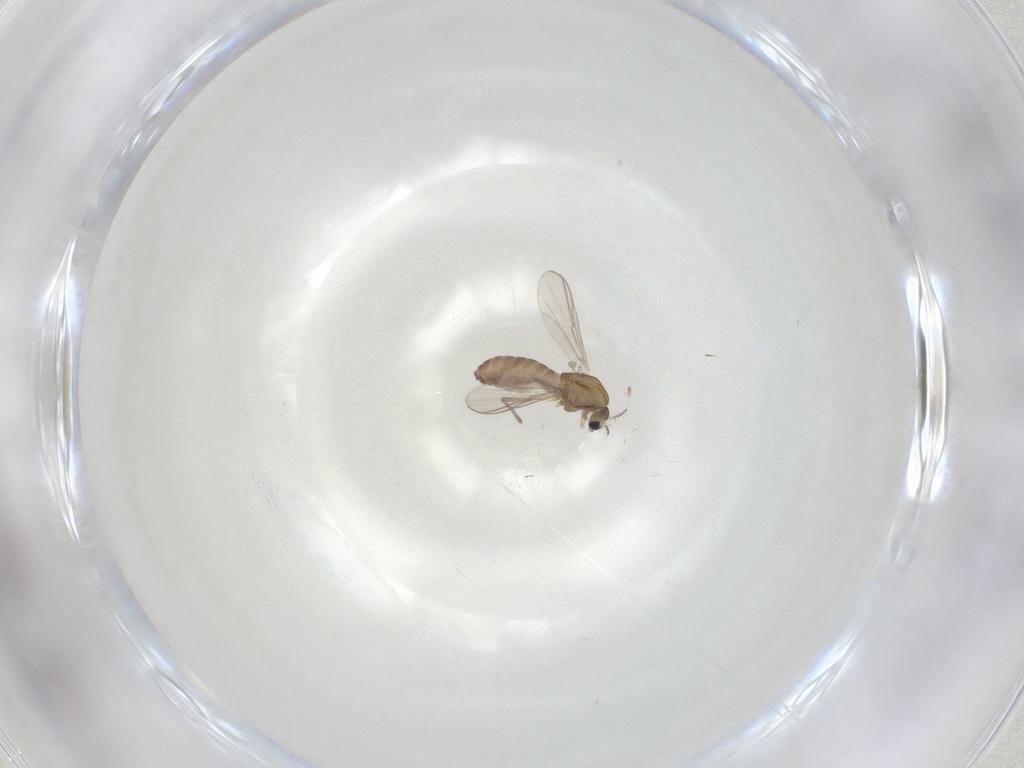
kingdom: Animalia
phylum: Arthropoda
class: Insecta
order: Diptera
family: Chironomidae
